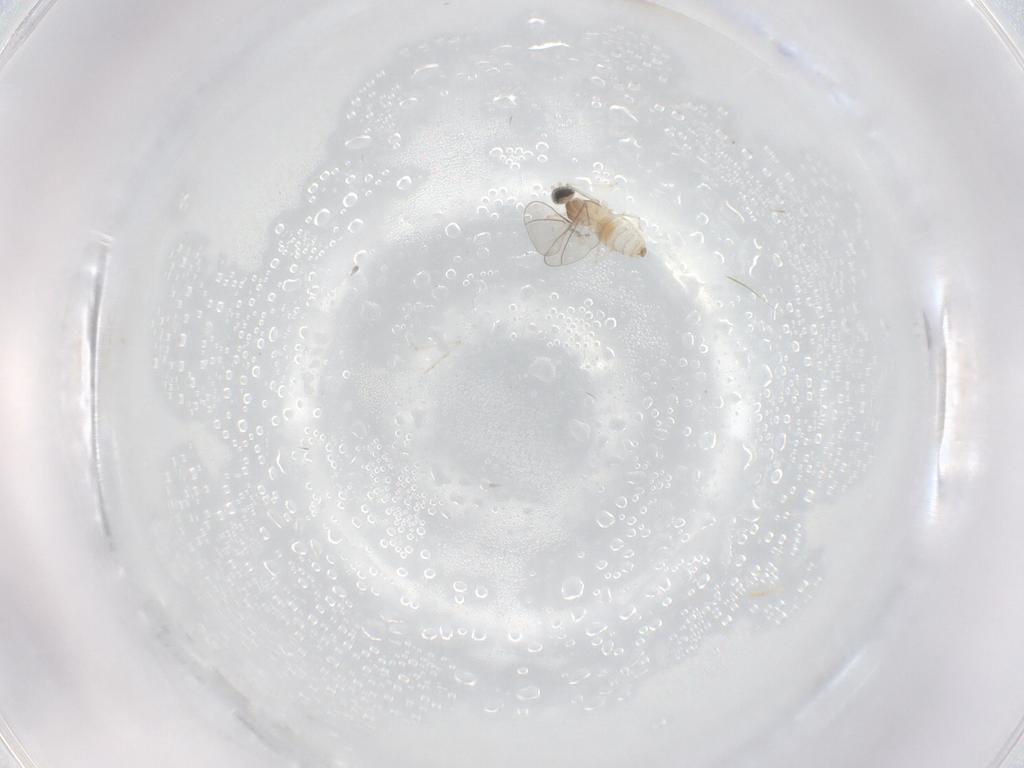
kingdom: Animalia
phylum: Arthropoda
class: Insecta
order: Diptera
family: Cecidomyiidae
